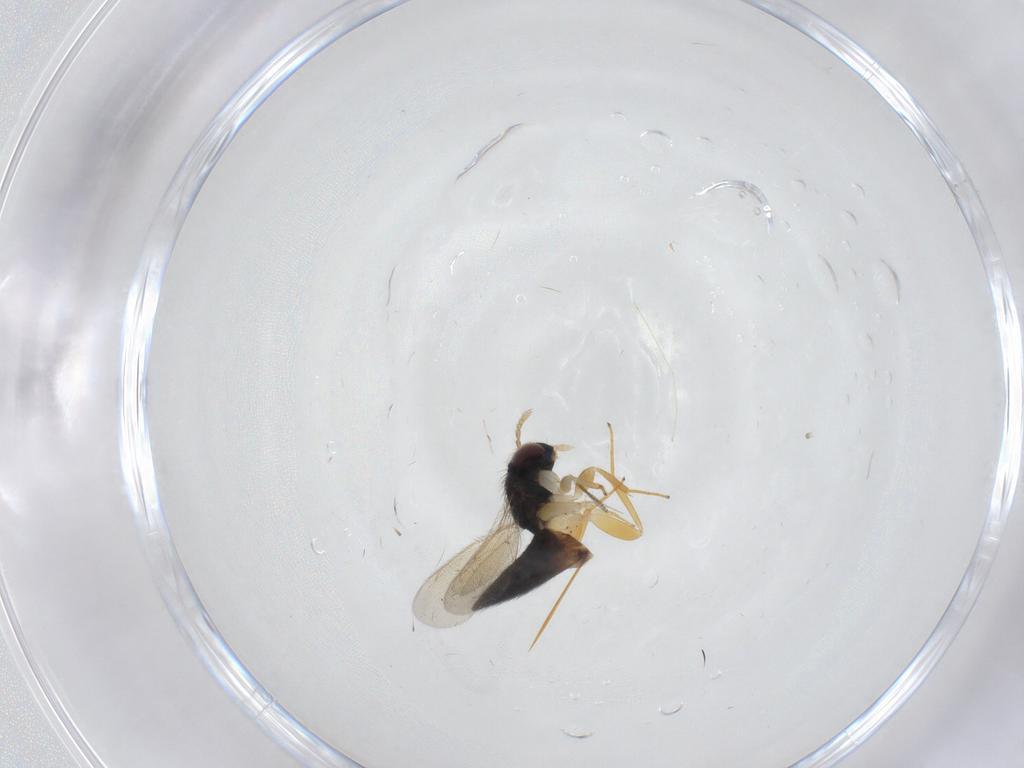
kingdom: Animalia
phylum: Arthropoda
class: Insecta
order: Hymenoptera
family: Eulophidae
